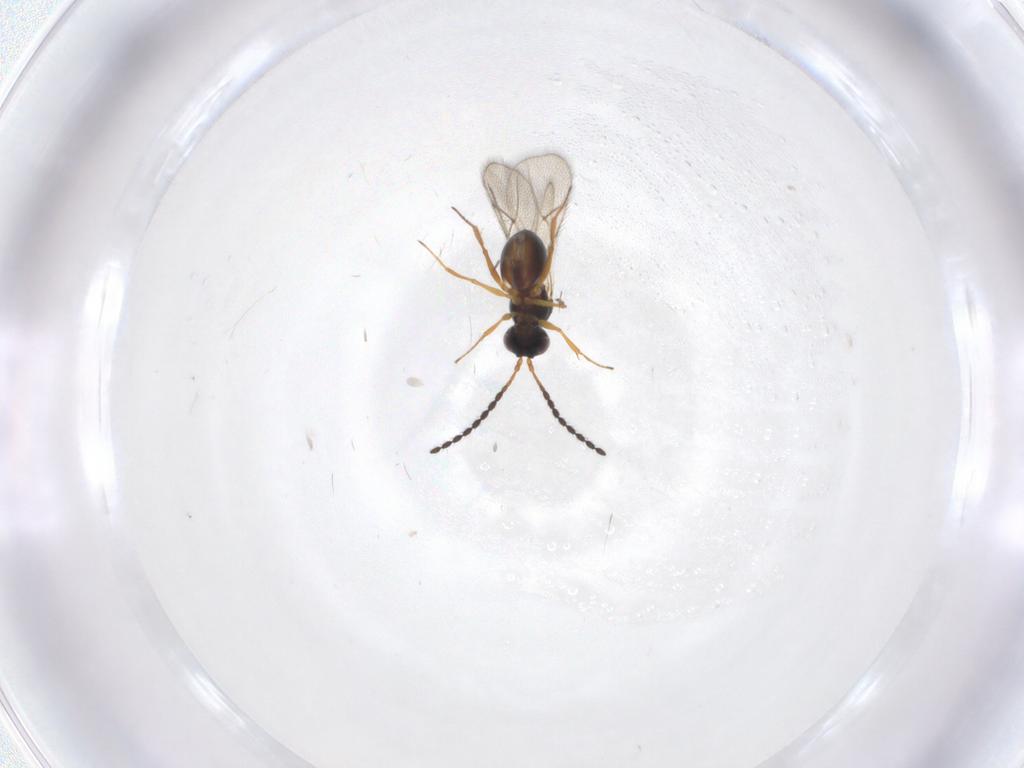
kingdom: Animalia
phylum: Arthropoda
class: Insecta
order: Hymenoptera
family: Figitidae
